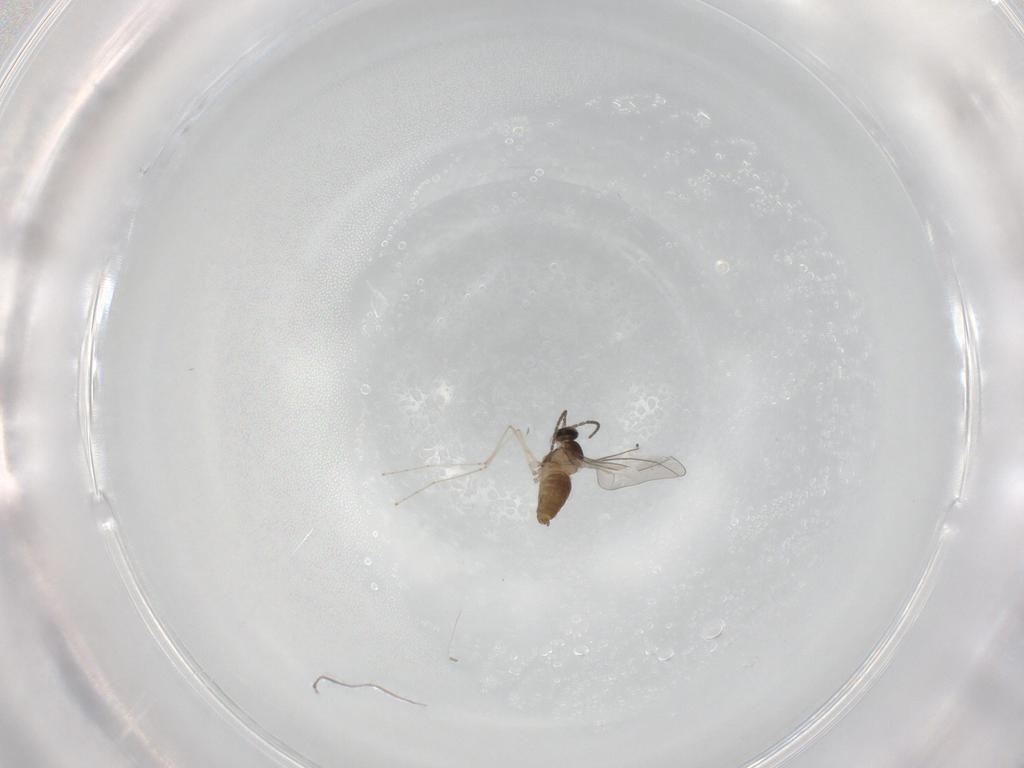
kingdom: Animalia
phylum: Arthropoda
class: Insecta
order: Diptera
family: Cecidomyiidae
